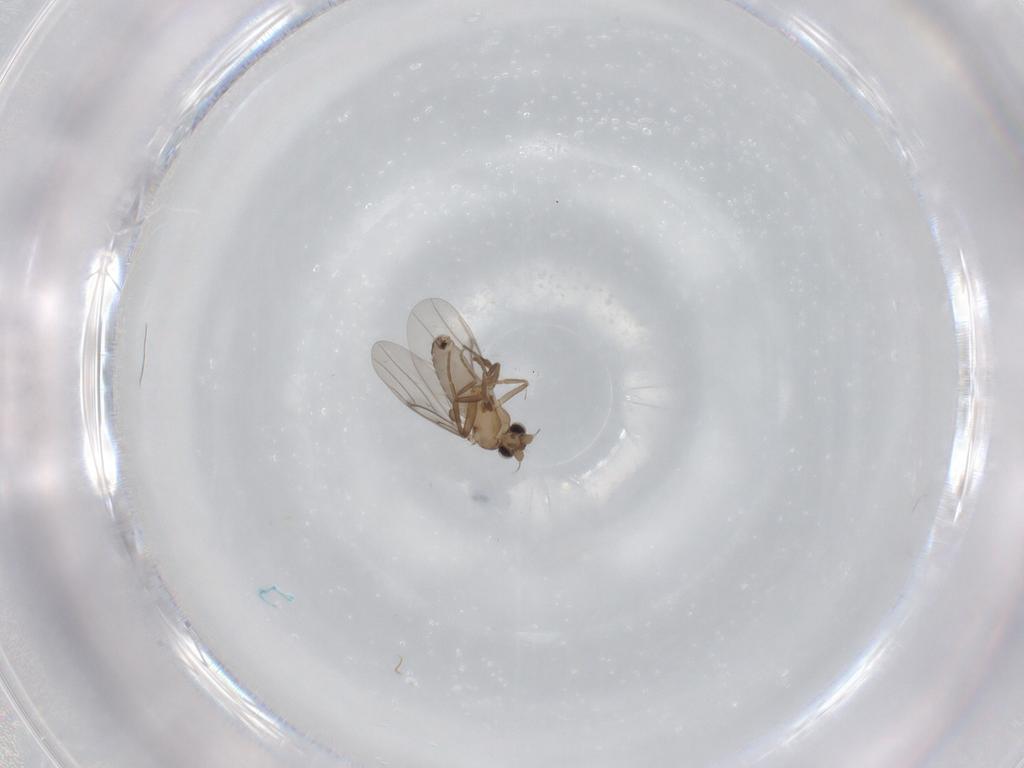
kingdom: Animalia
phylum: Arthropoda
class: Insecta
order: Diptera
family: Ceratopogonidae
